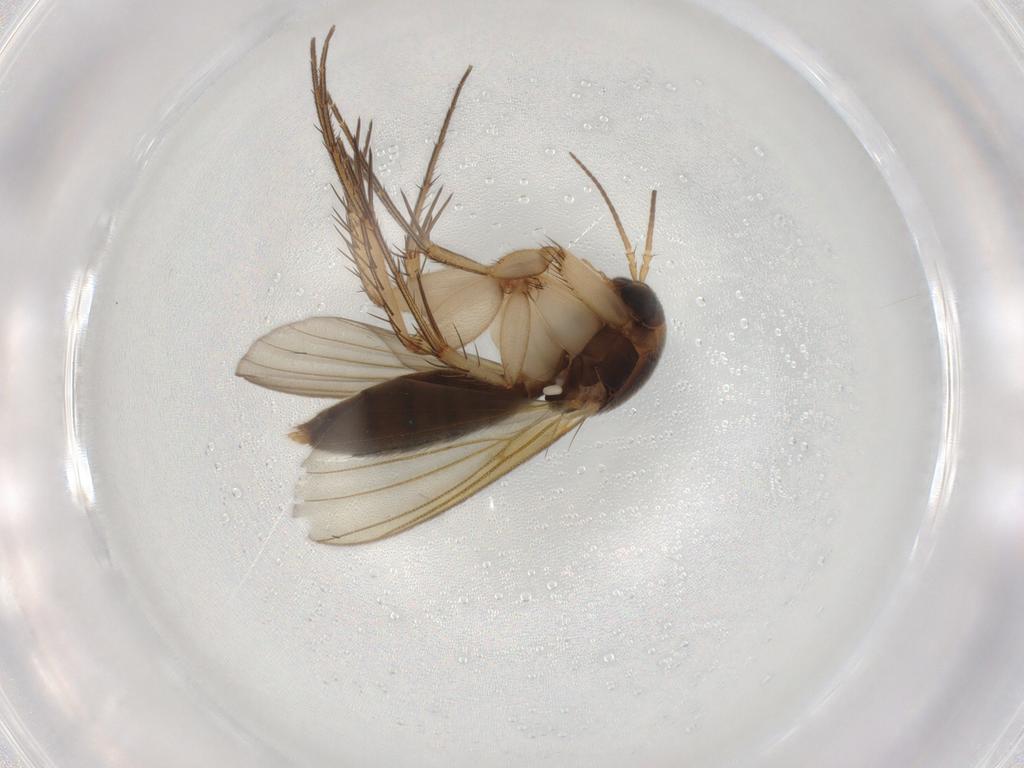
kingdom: Animalia
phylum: Arthropoda
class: Insecta
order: Diptera
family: Mycetophilidae
